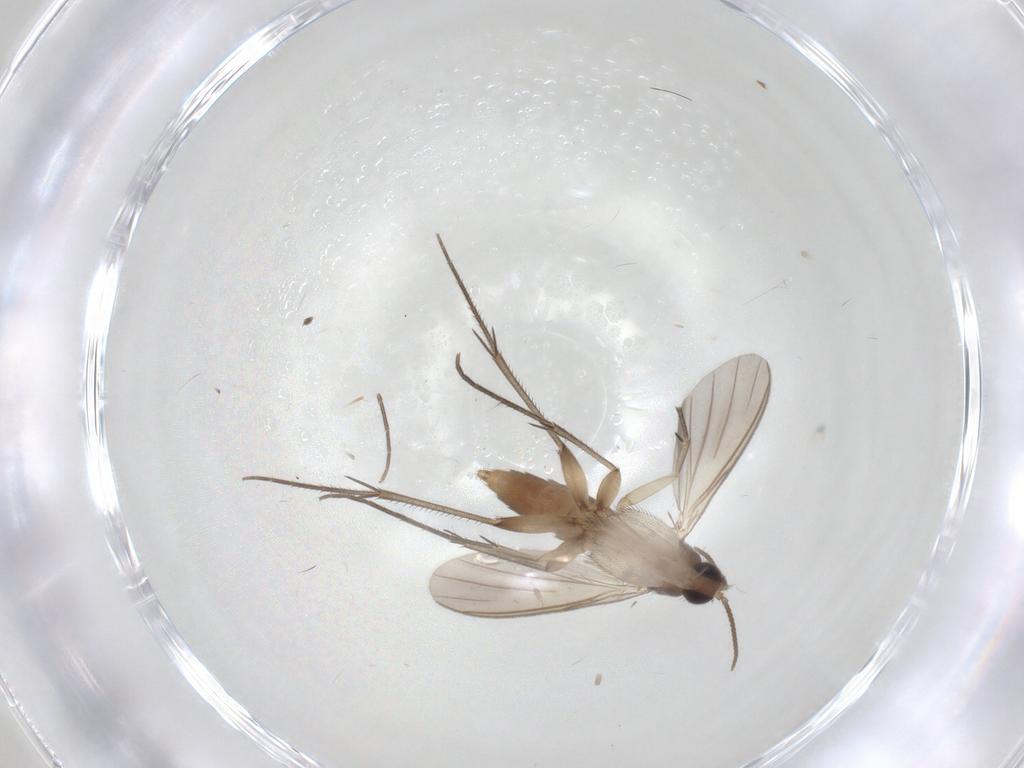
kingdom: Animalia
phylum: Arthropoda
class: Insecta
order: Diptera
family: Mycetophilidae
